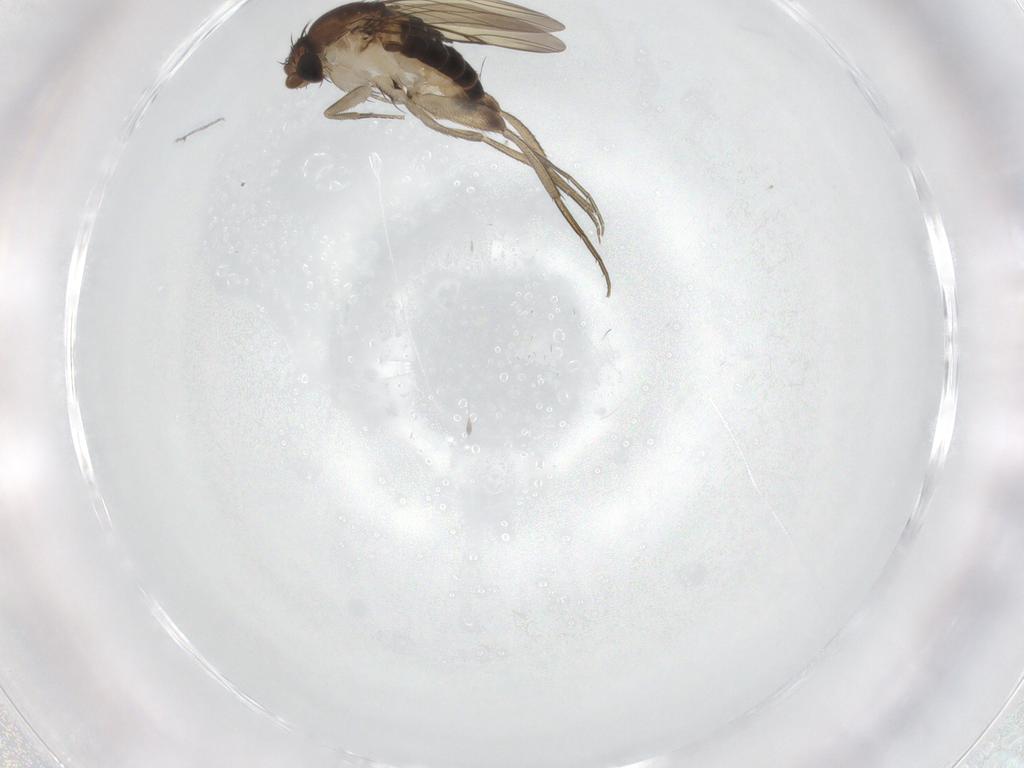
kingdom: Animalia
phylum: Arthropoda
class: Insecta
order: Diptera
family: Phoridae
